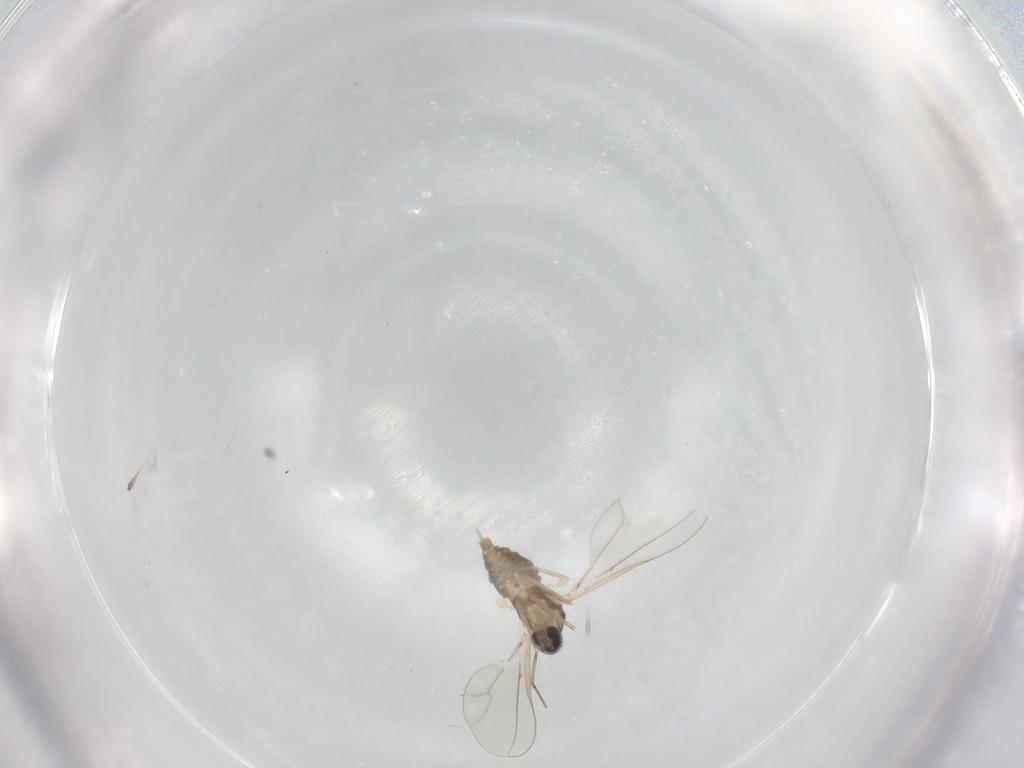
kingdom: Animalia
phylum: Arthropoda
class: Insecta
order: Diptera
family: Cecidomyiidae
